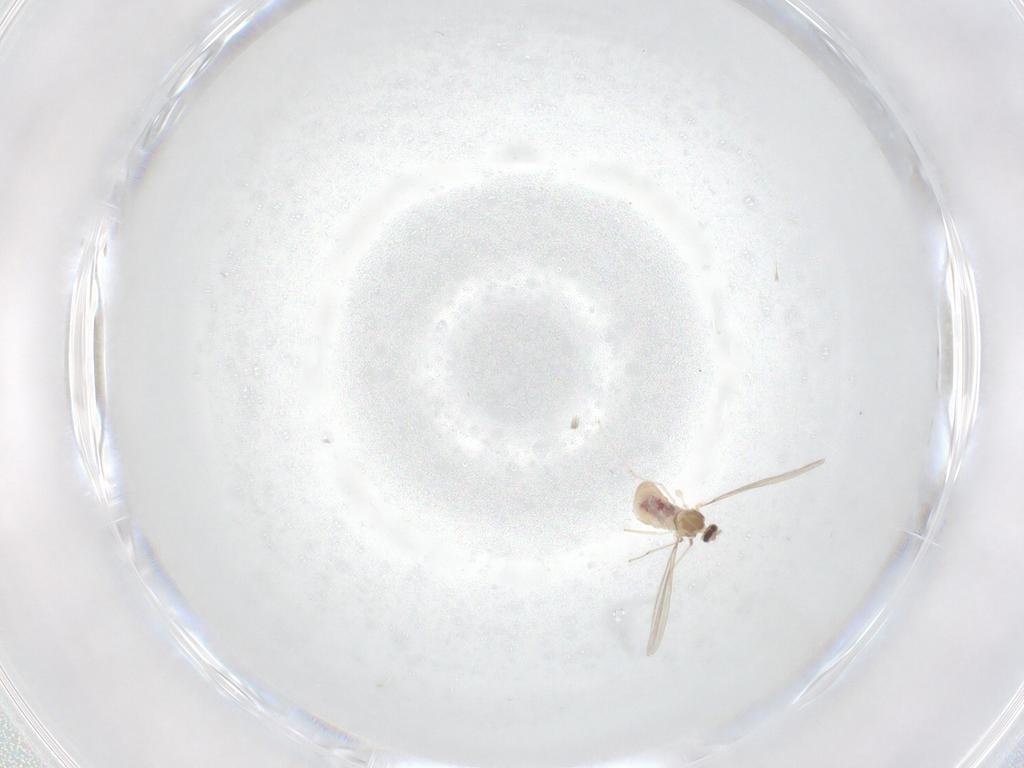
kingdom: Animalia
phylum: Arthropoda
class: Insecta
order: Diptera
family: Cecidomyiidae
